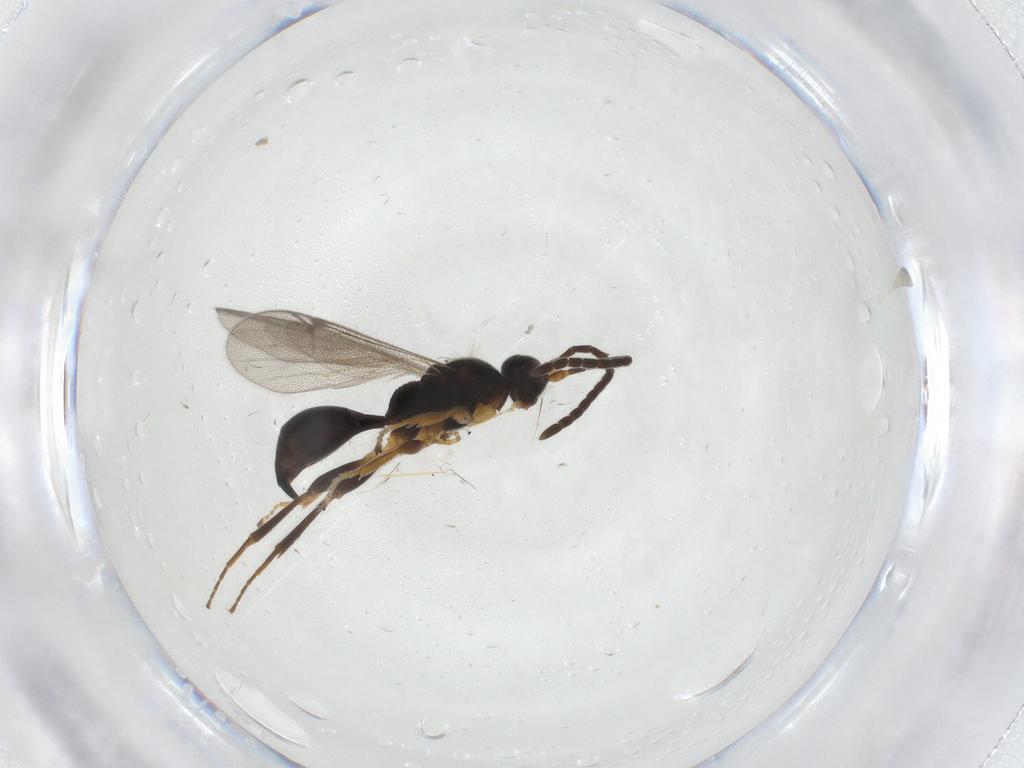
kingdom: Animalia
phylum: Arthropoda
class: Insecta
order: Hymenoptera
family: Proctotrupidae
